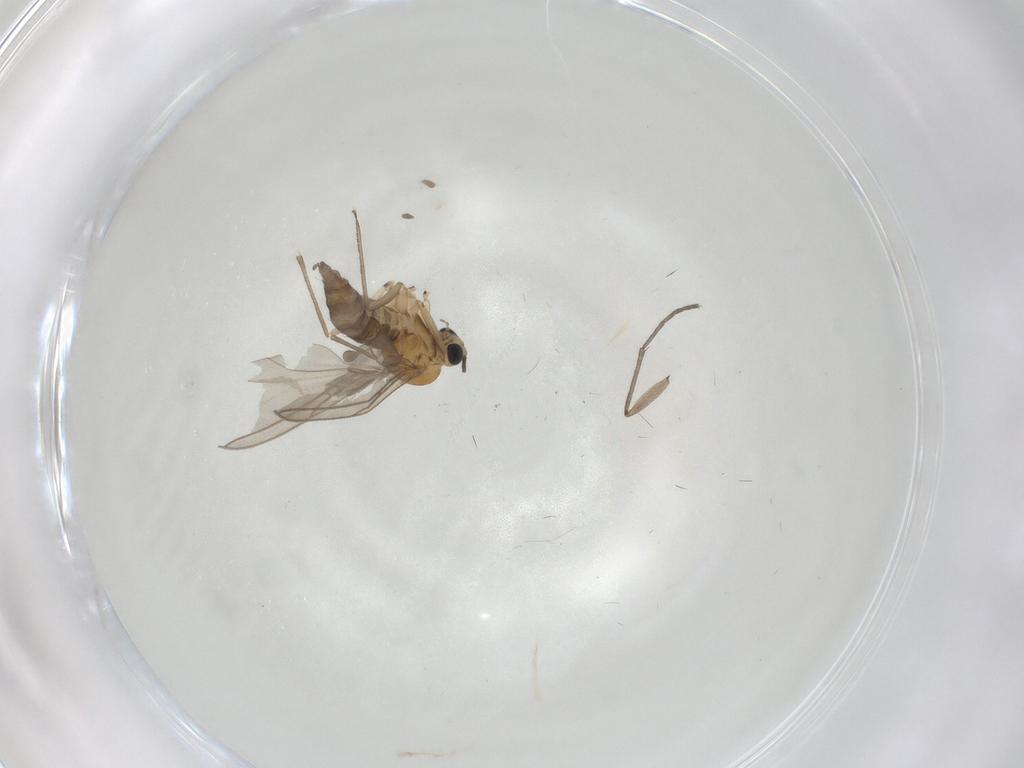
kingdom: Animalia
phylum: Arthropoda
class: Insecta
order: Diptera
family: Sciaridae
